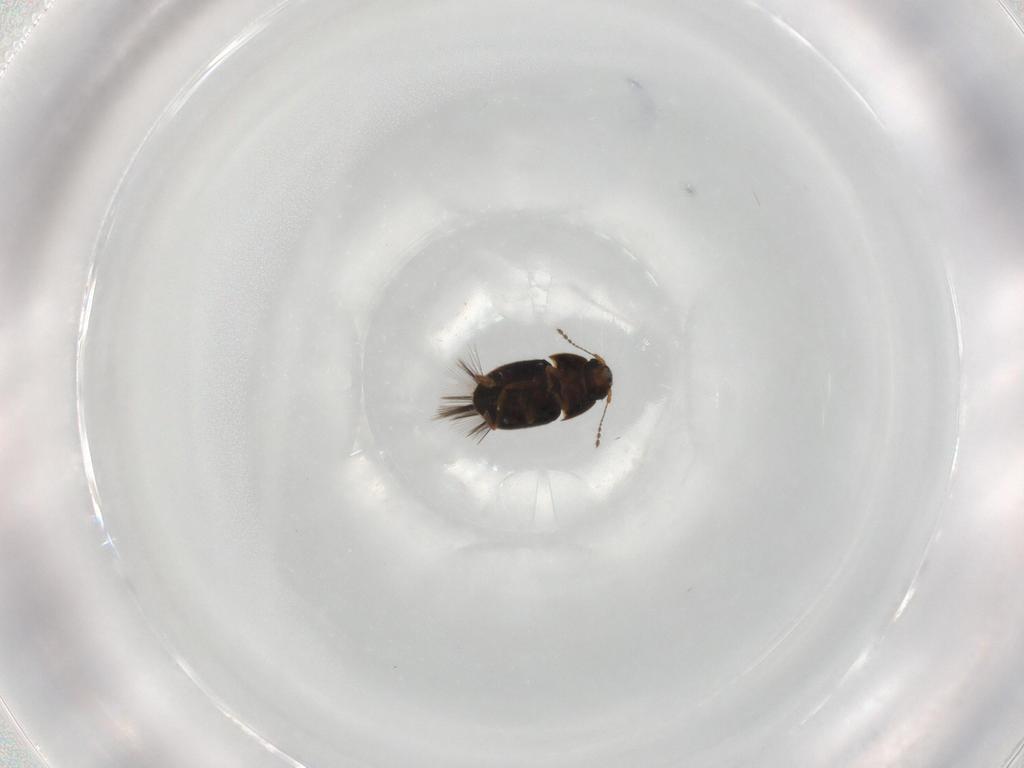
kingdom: Animalia
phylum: Arthropoda
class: Insecta
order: Coleoptera
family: Ptiliidae
